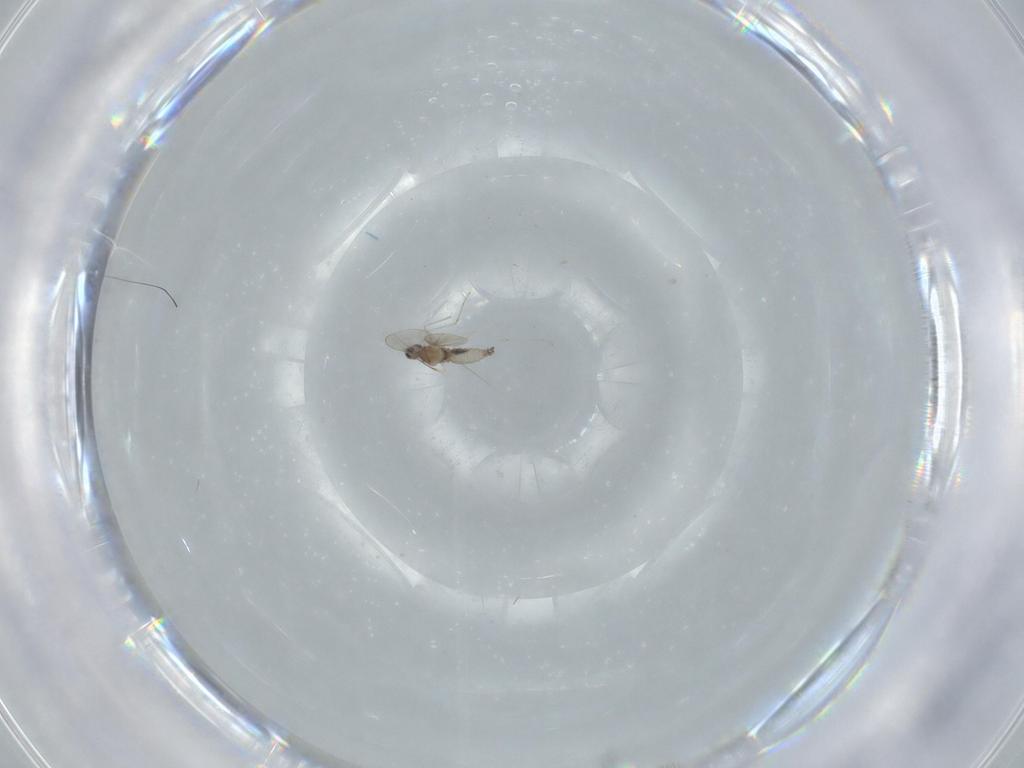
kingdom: Animalia
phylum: Arthropoda
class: Insecta
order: Diptera
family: Cecidomyiidae
